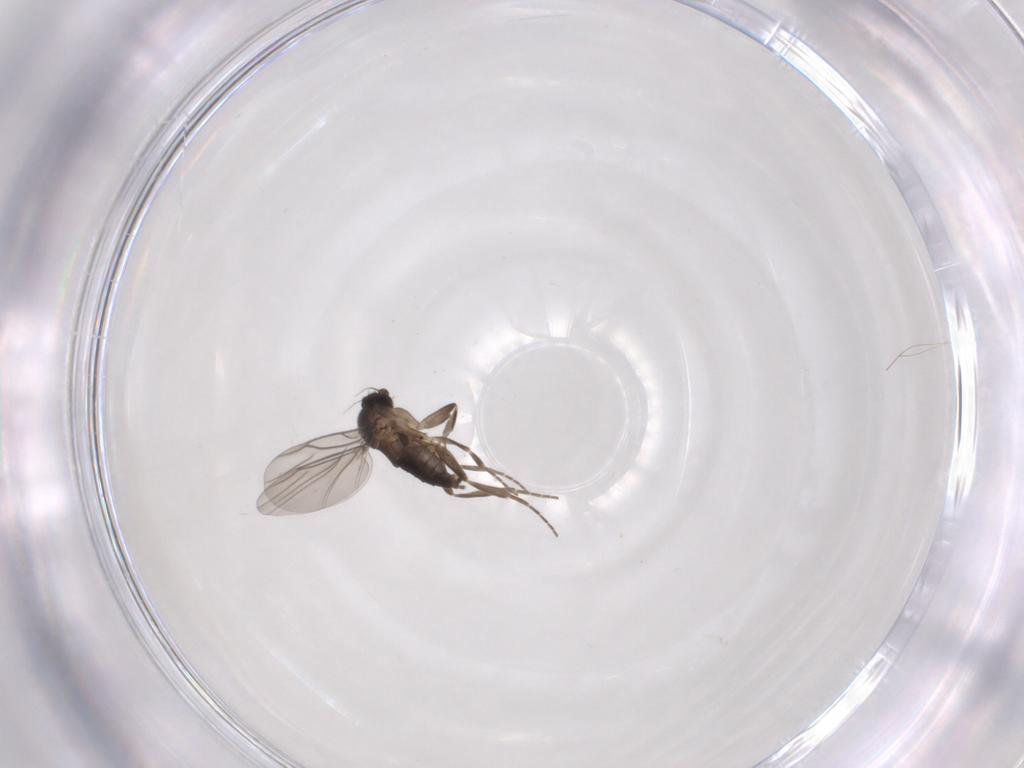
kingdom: Animalia
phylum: Arthropoda
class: Insecta
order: Diptera
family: Phoridae
